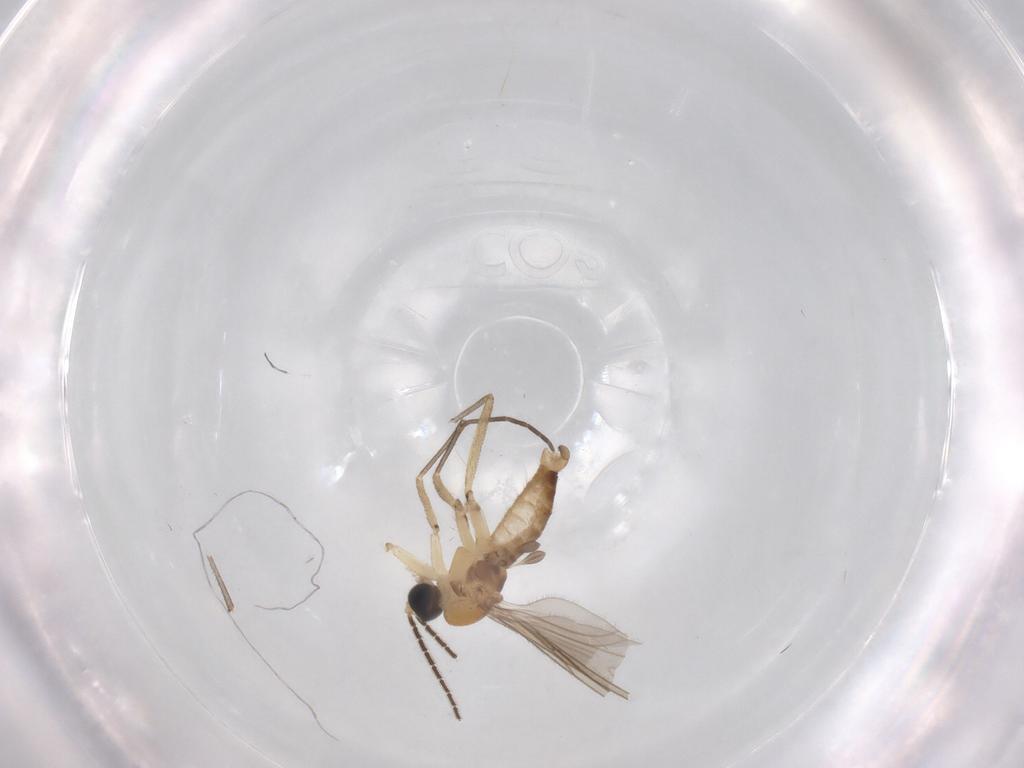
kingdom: Animalia
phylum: Arthropoda
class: Insecta
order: Diptera
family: Sciaridae
